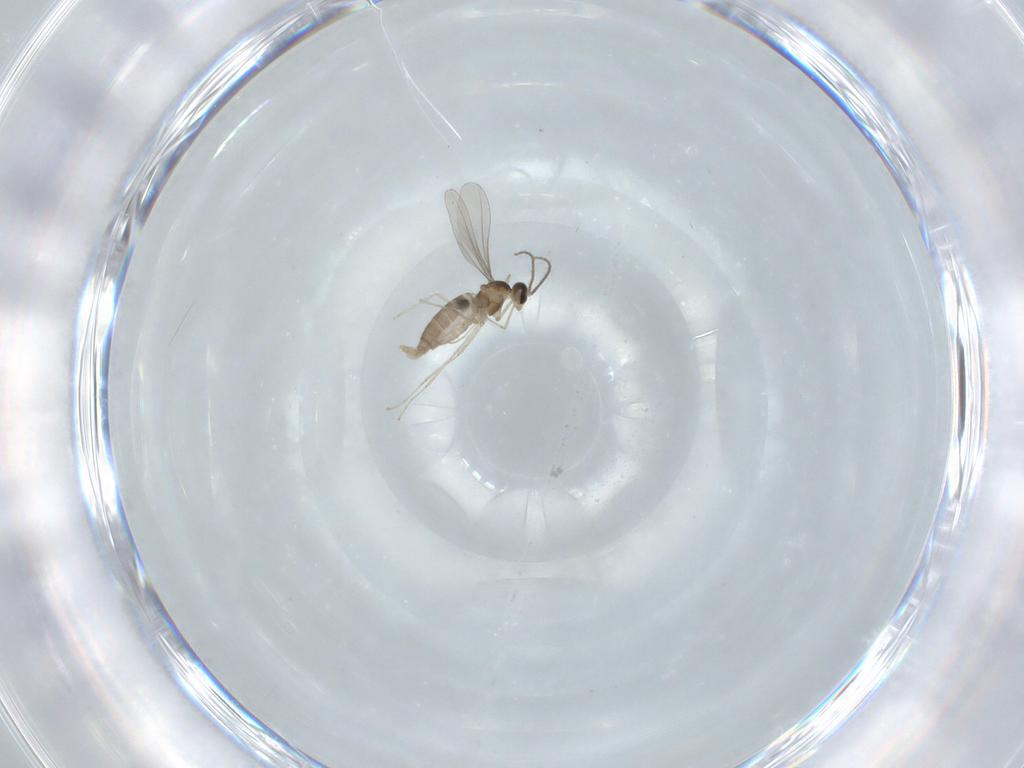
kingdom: Animalia
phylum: Arthropoda
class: Insecta
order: Diptera
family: Empididae
